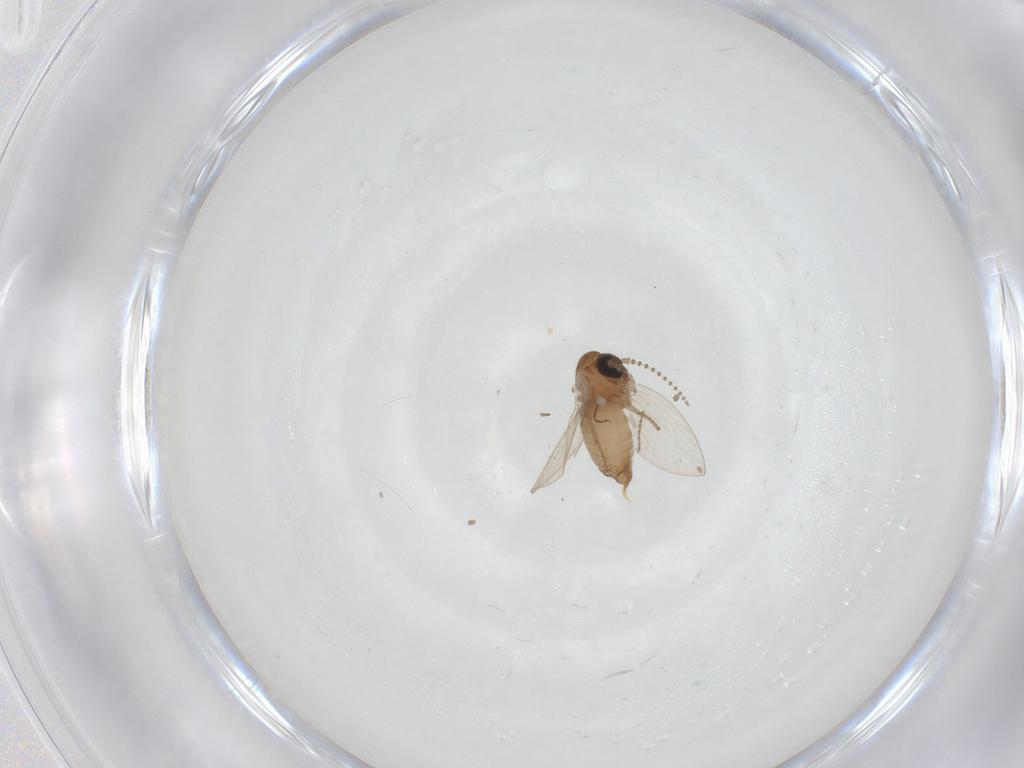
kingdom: Animalia
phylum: Arthropoda
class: Insecta
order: Diptera
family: Psychodidae
